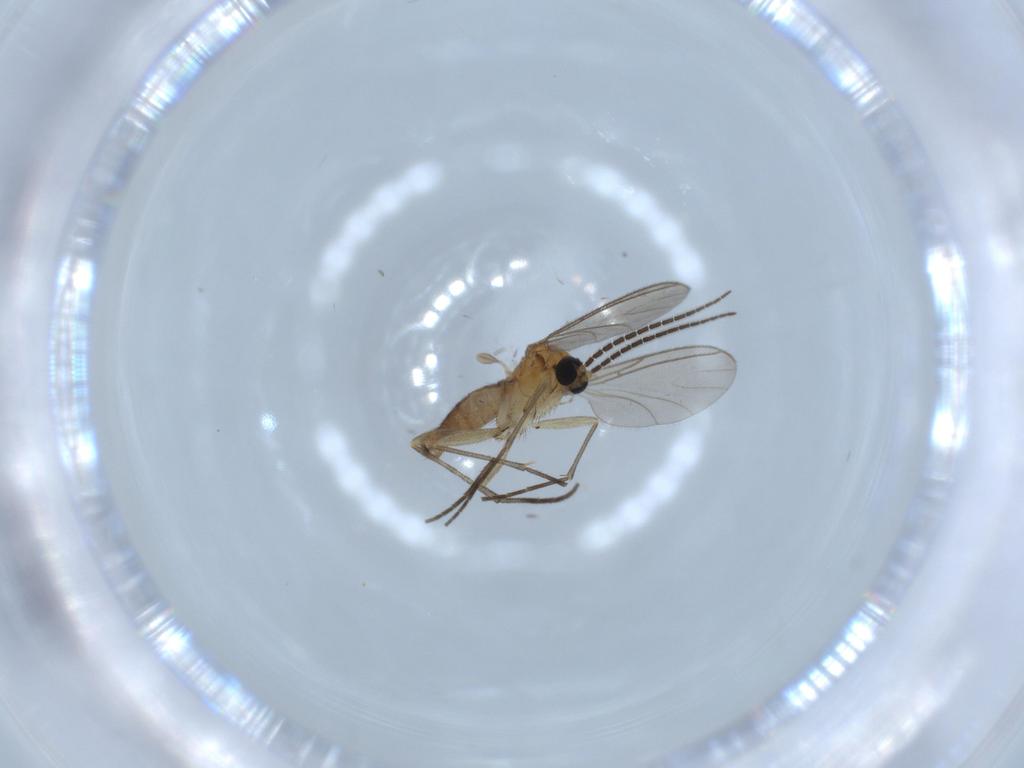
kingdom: Animalia
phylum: Arthropoda
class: Insecta
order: Diptera
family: Sciaridae
